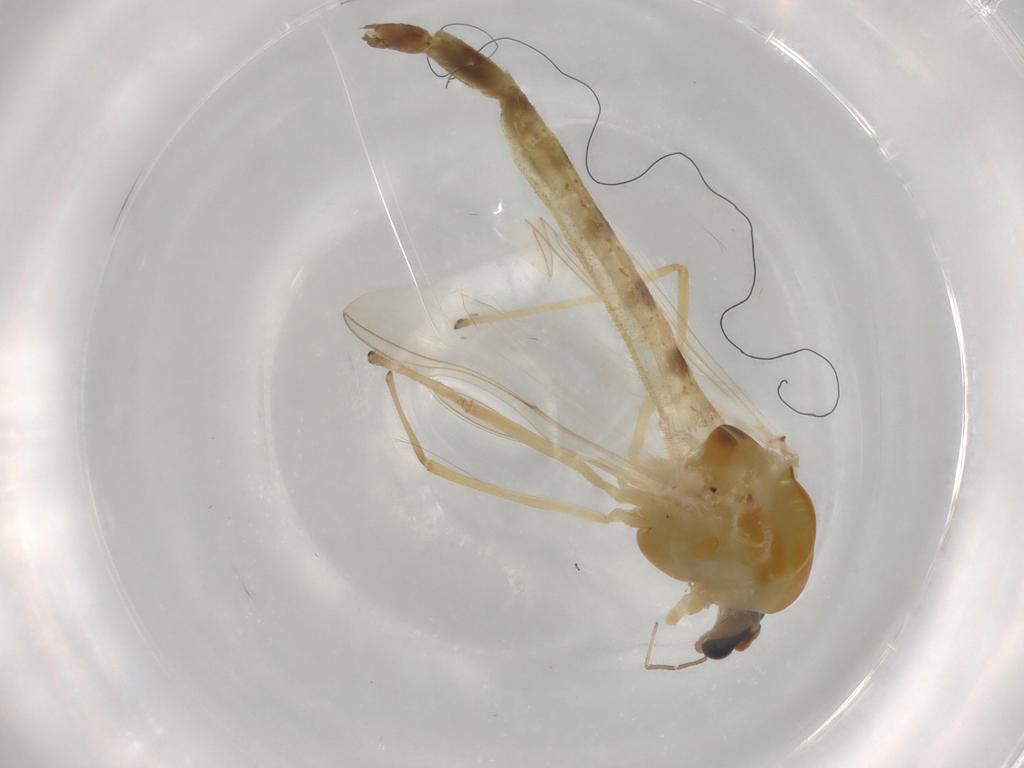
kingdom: Animalia
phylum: Arthropoda
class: Insecta
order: Diptera
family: Chironomidae
